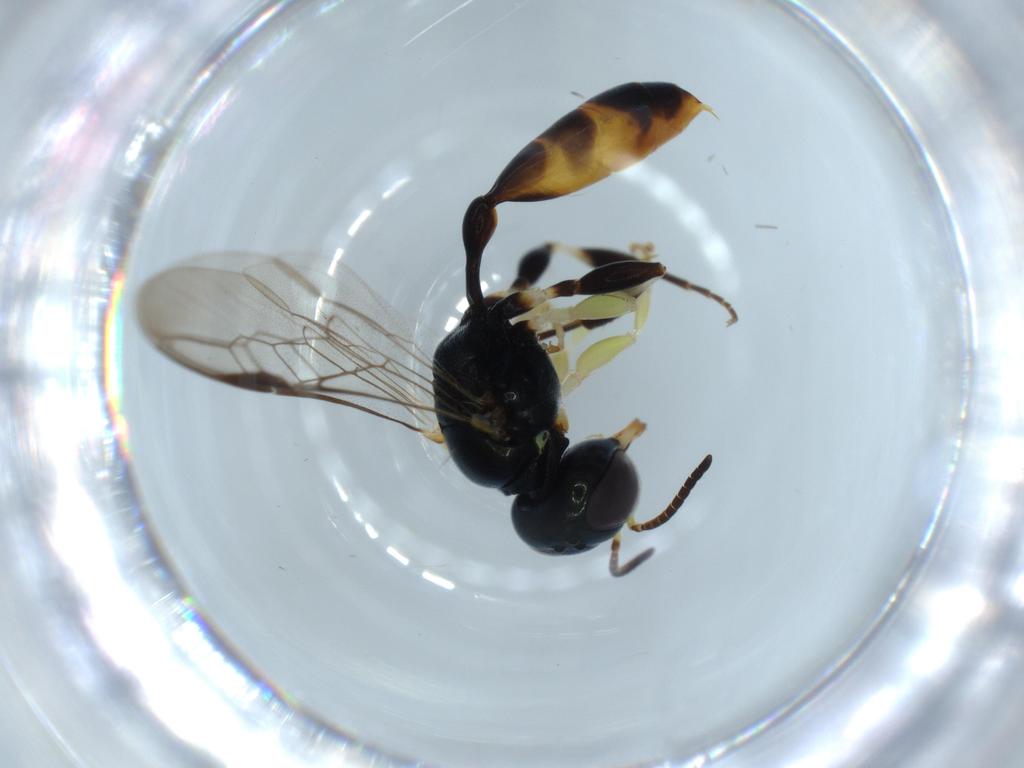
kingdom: Animalia
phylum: Arthropoda
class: Insecta
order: Hymenoptera
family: Crabronidae
